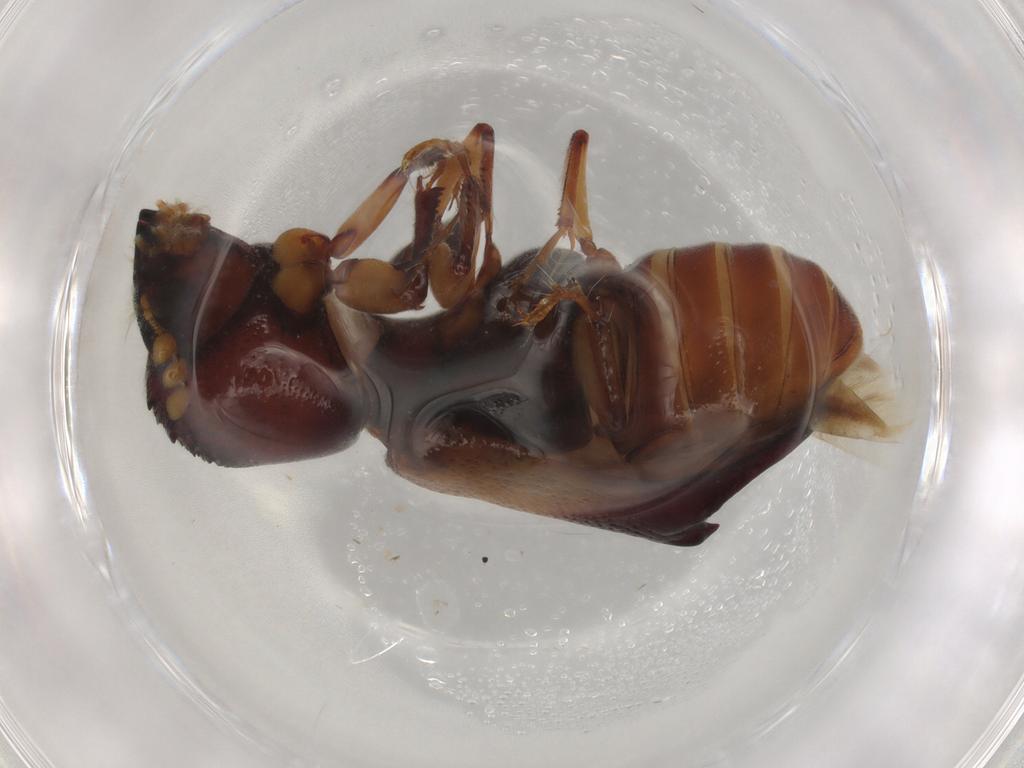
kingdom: Animalia
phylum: Arthropoda
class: Insecta
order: Coleoptera
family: Bostrichidae
